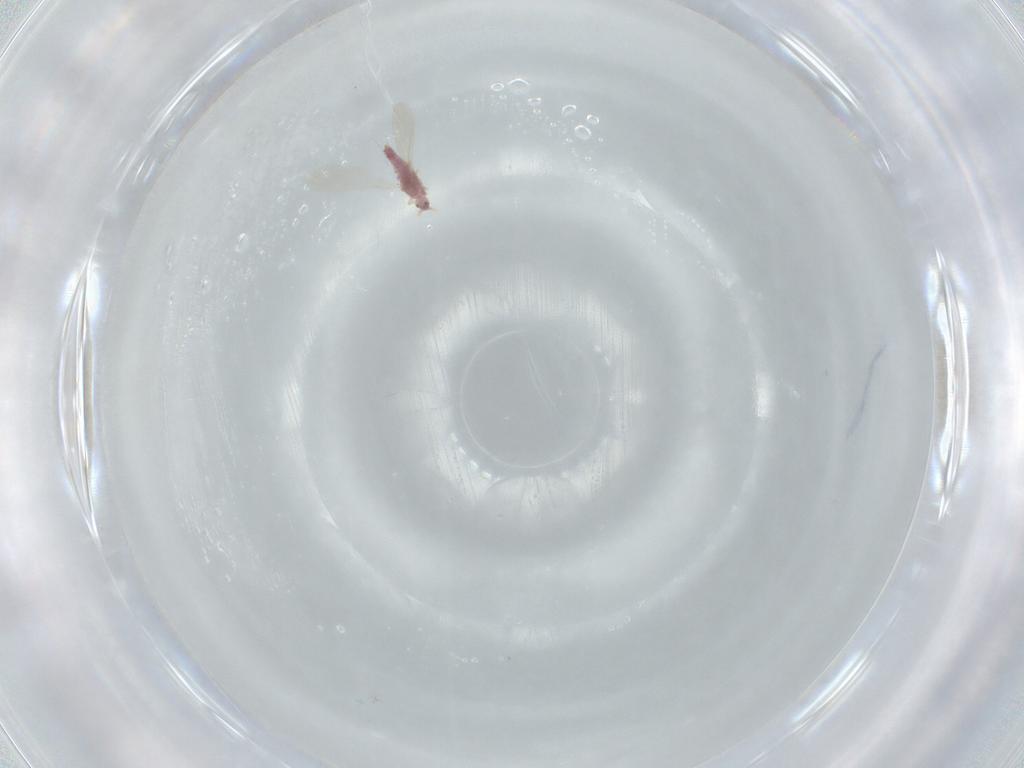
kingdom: Animalia
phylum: Arthropoda
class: Insecta
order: Hemiptera
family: Pseudococcidae
